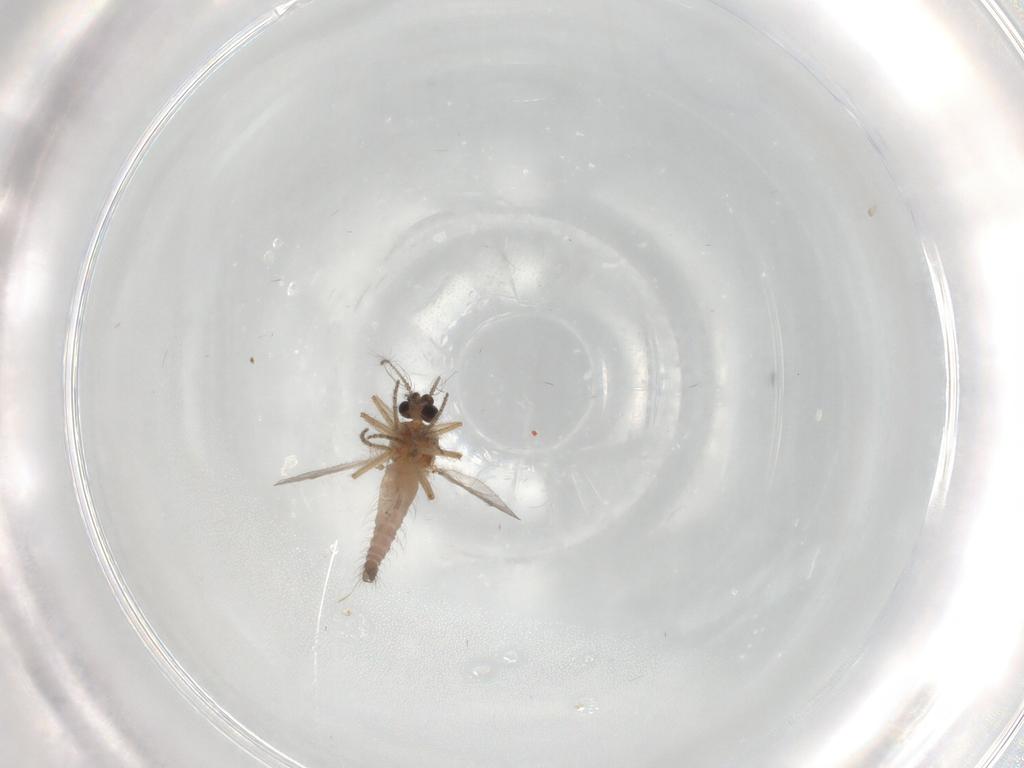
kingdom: Animalia
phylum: Arthropoda
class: Insecta
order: Diptera
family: Ceratopogonidae
